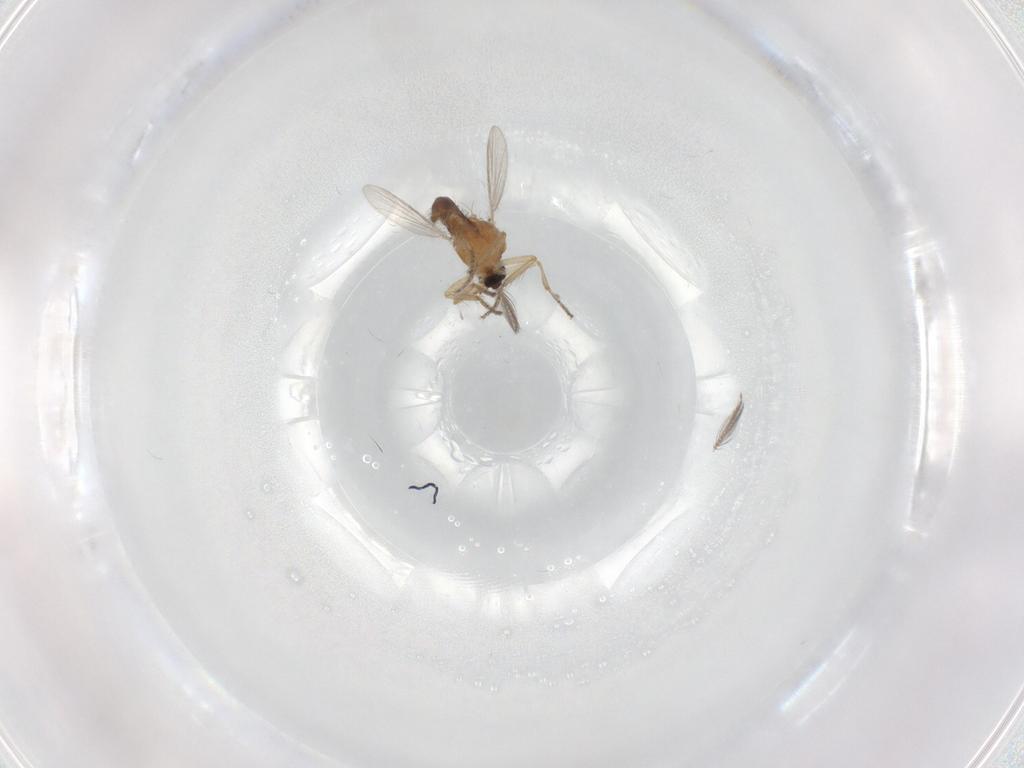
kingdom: Animalia
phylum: Arthropoda
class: Insecta
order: Diptera
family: Ceratopogonidae
